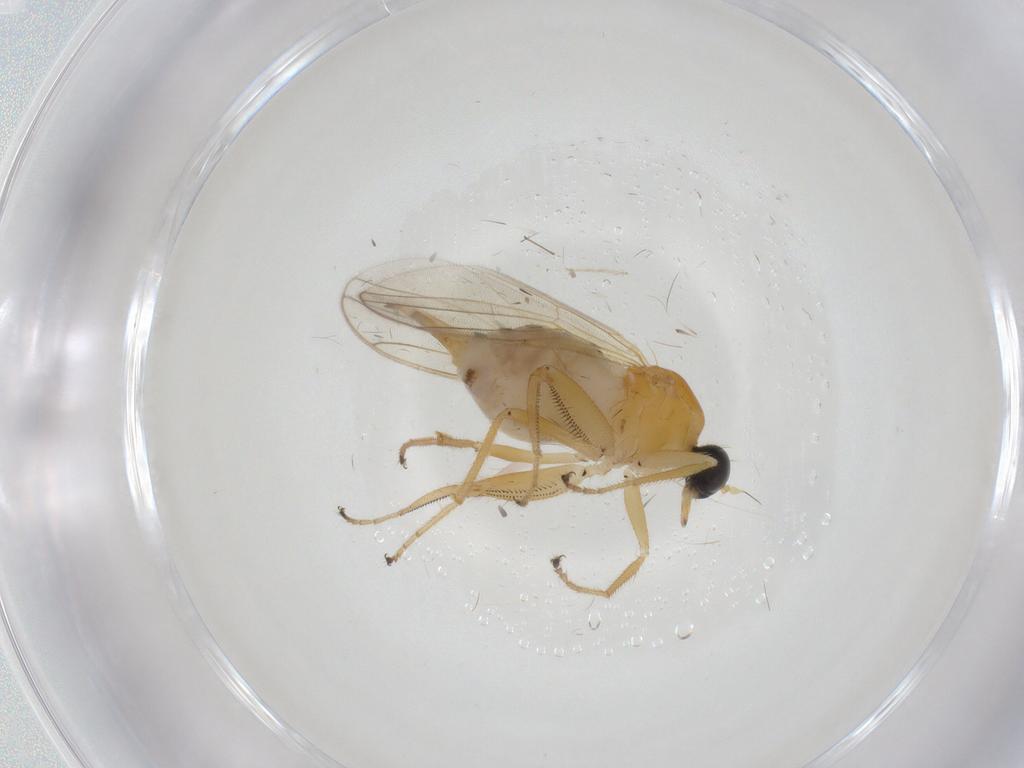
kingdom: Animalia
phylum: Arthropoda
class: Insecta
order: Diptera
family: Hybotidae
